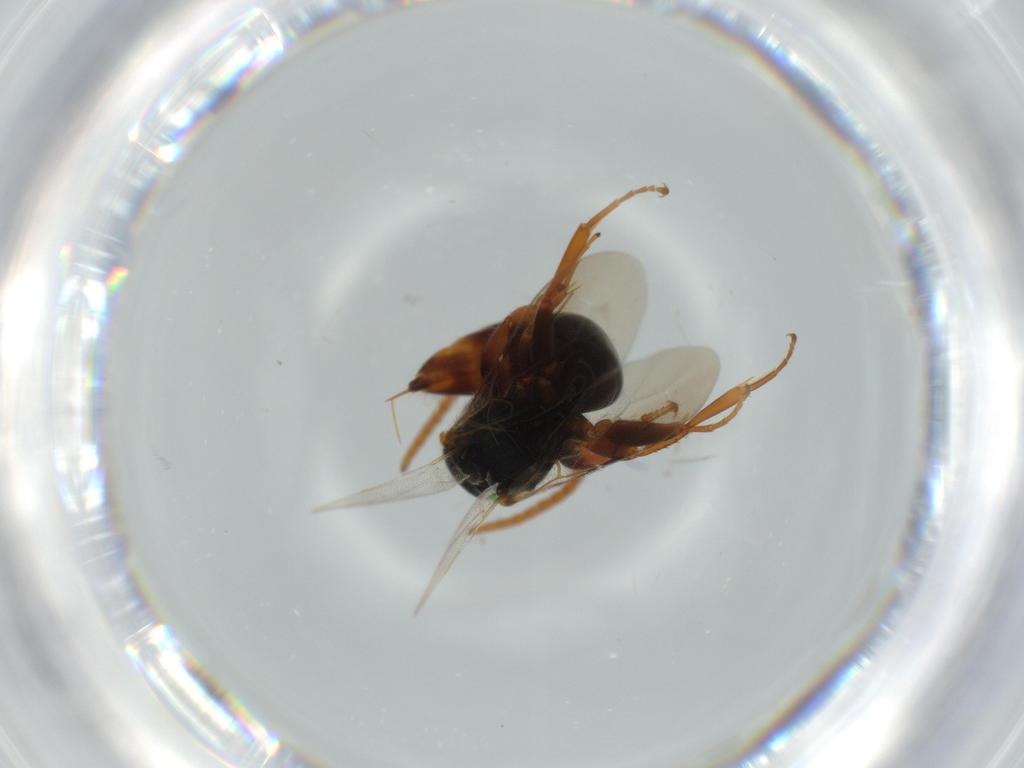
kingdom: Animalia
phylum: Arthropoda
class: Insecta
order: Hymenoptera
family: Bethylidae
